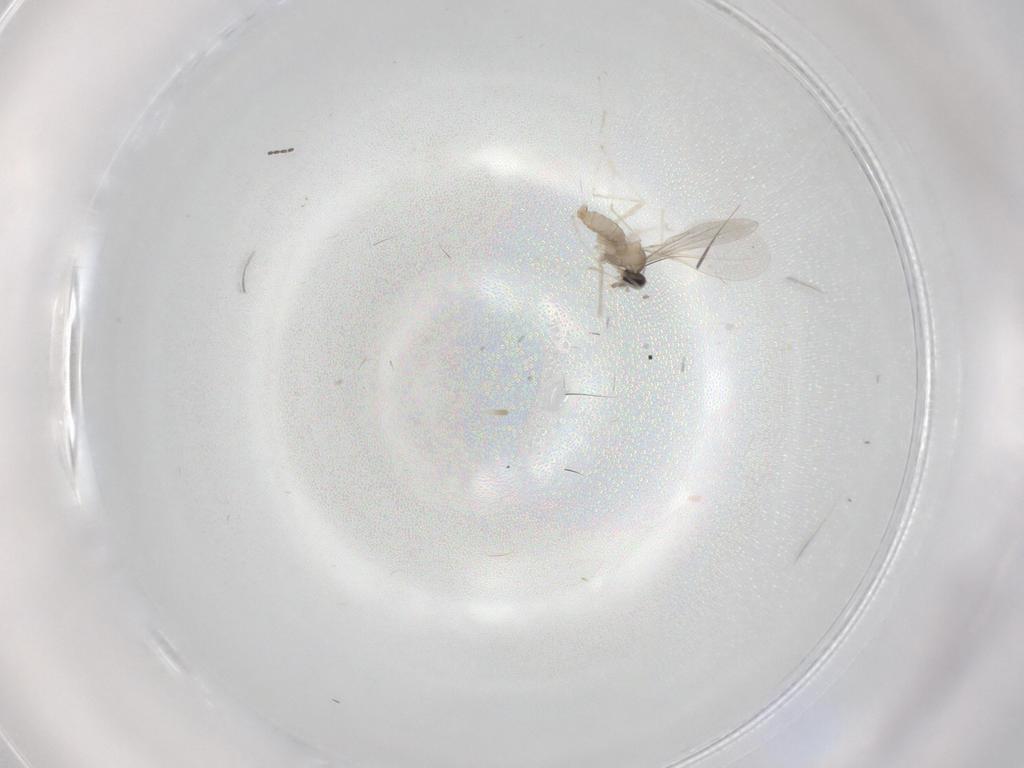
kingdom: Animalia
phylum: Arthropoda
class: Insecta
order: Diptera
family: Cecidomyiidae
